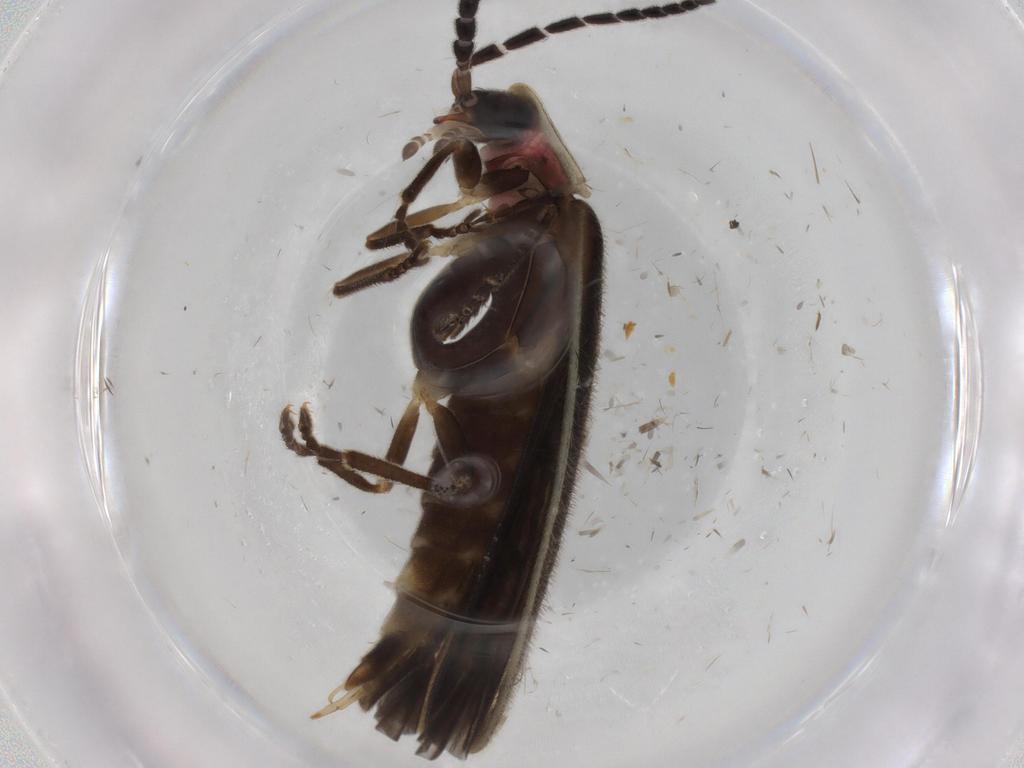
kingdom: Animalia
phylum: Arthropoda
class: Insecta
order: Coleoptera
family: Lampyridae
